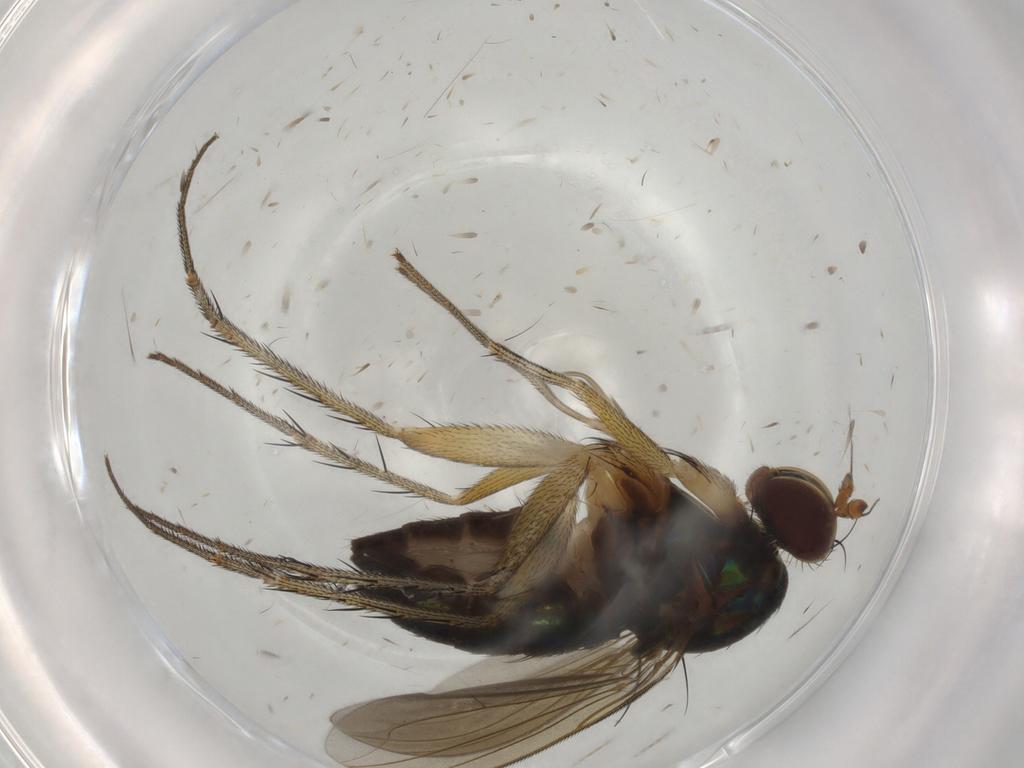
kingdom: Animalia
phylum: Arthropoda
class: Insecta
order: Diptera
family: Dolichopodidae
